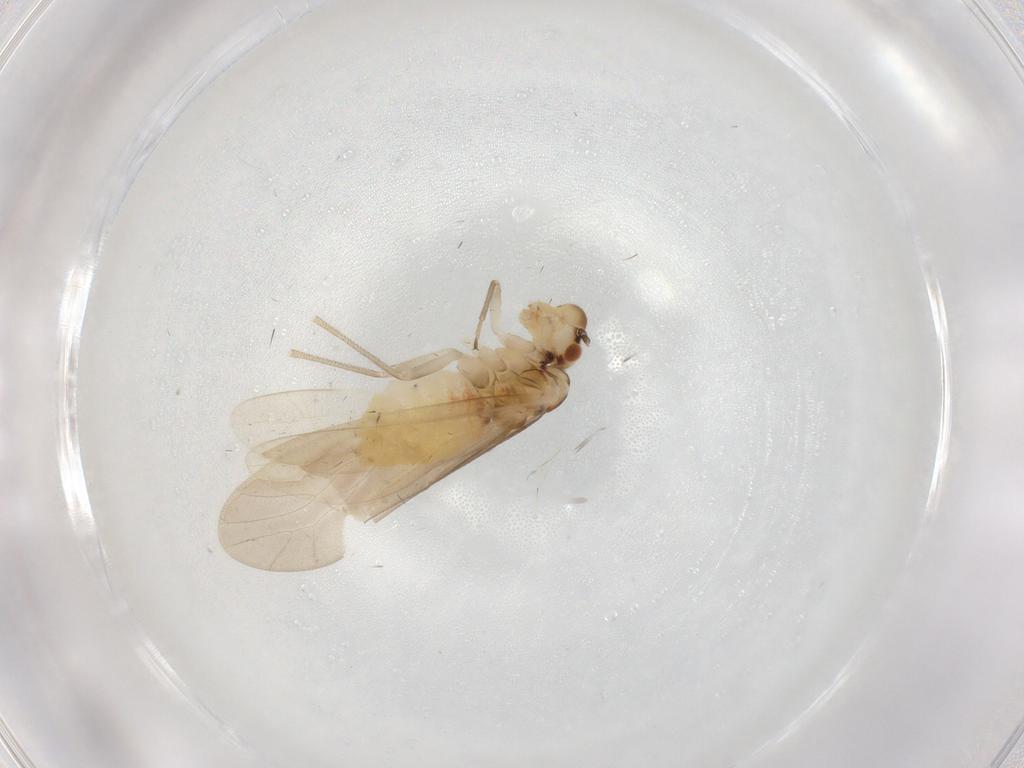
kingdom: Animalia
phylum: Arthropoda
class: Insecta
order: Psocodea
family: Caeciliusidae
